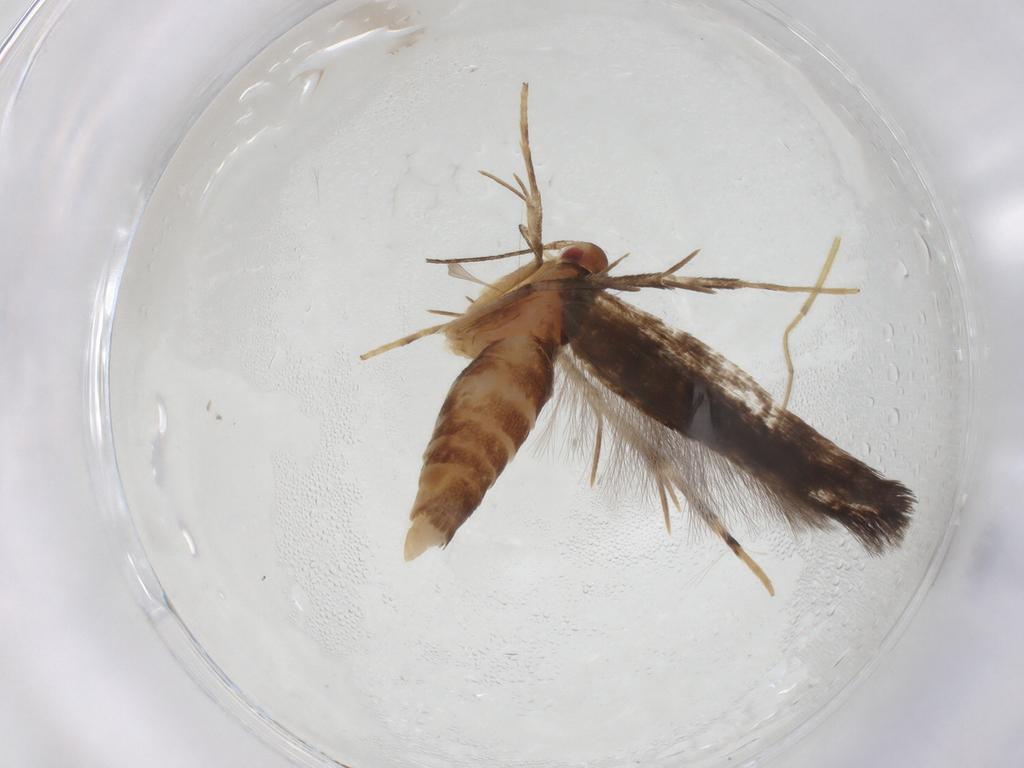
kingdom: Animalia
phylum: Arthropoda
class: Insecta
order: Lepidoptera
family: Cosmopterigidae
